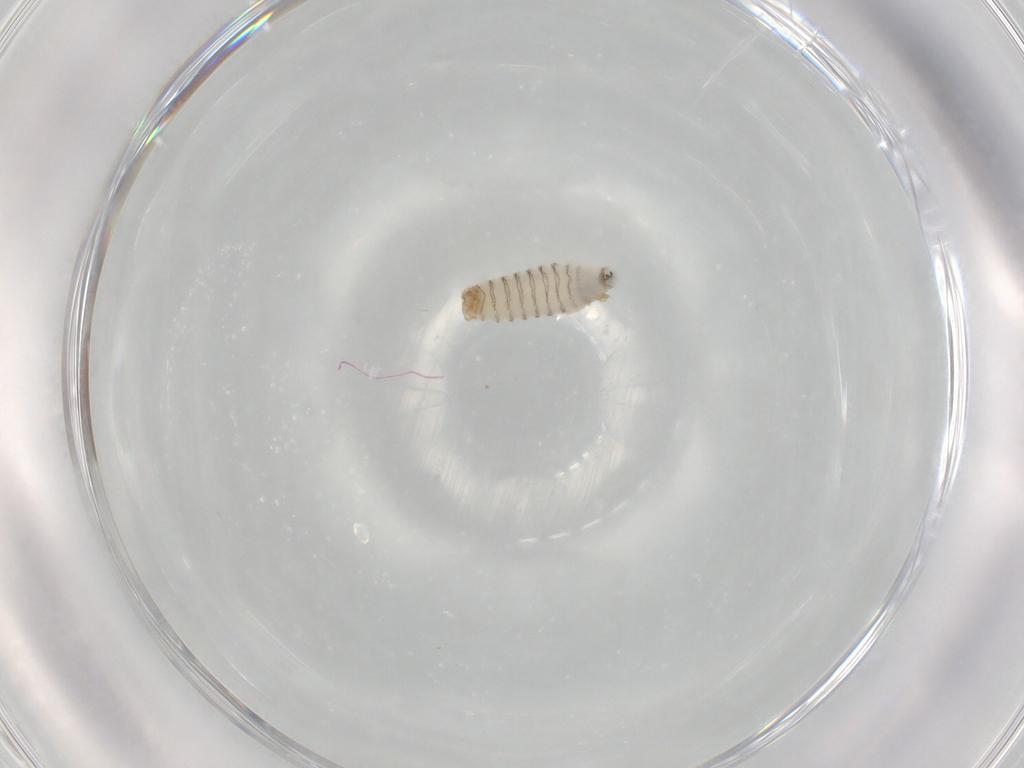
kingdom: Animalia
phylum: Arthropoda
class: Insecta
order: Diptera
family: Sarcophagidae
